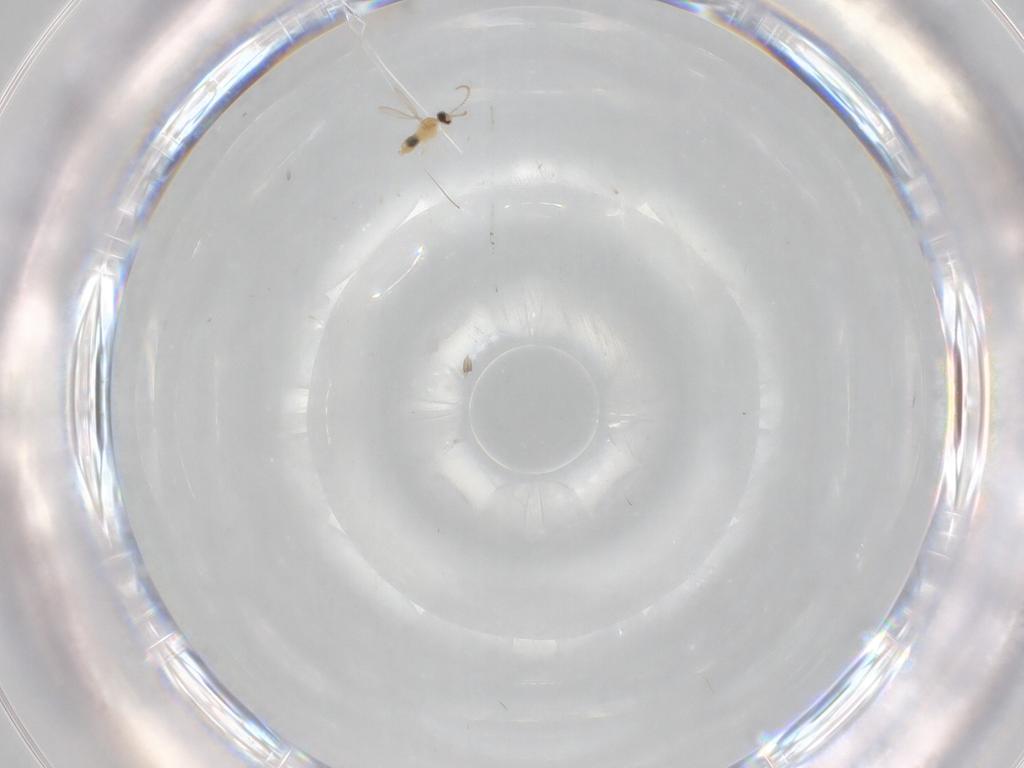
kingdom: Animalia
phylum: Arthropoda
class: Insecta
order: Diptera
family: Cecidomyiidae
